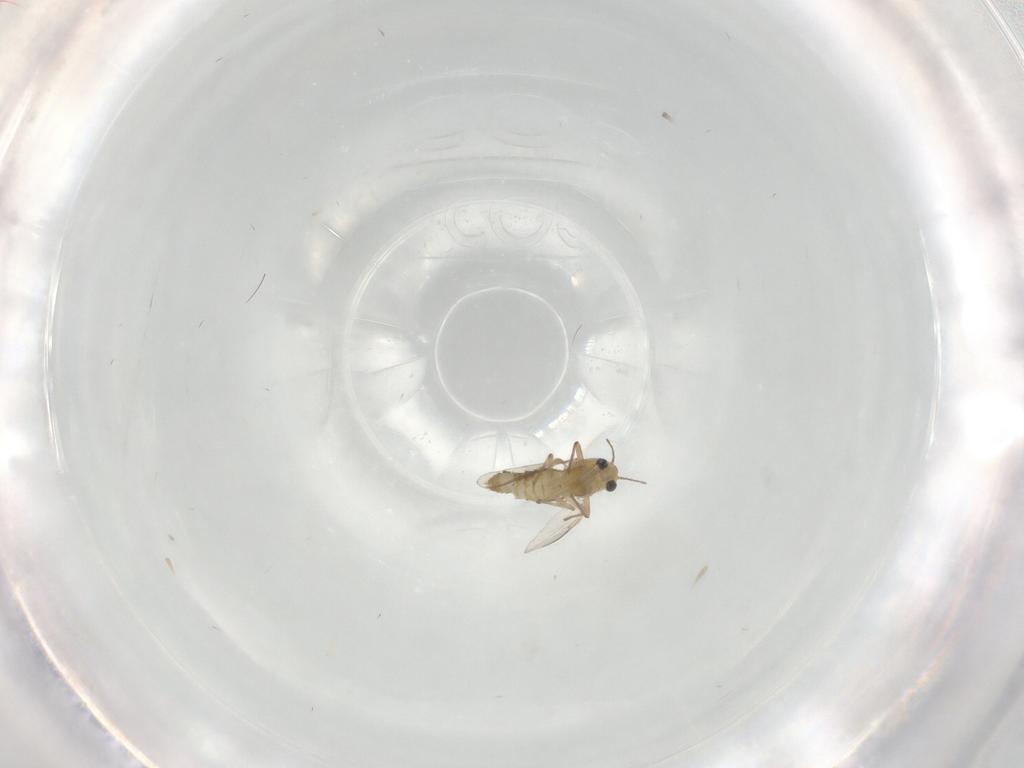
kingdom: Animalia
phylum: Arthropoda
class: Insecta
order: Diptera
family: Chironomidae
